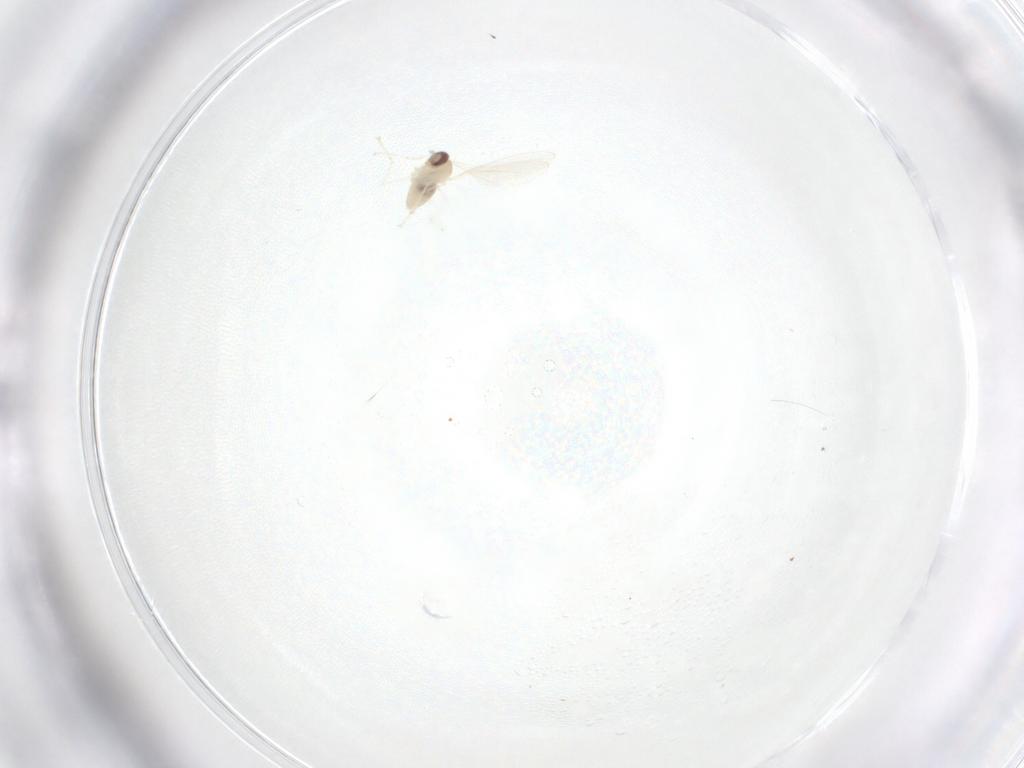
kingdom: Animalia
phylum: Arthropoda
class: Insecta
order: Diptera
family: Cecidomyiidae
